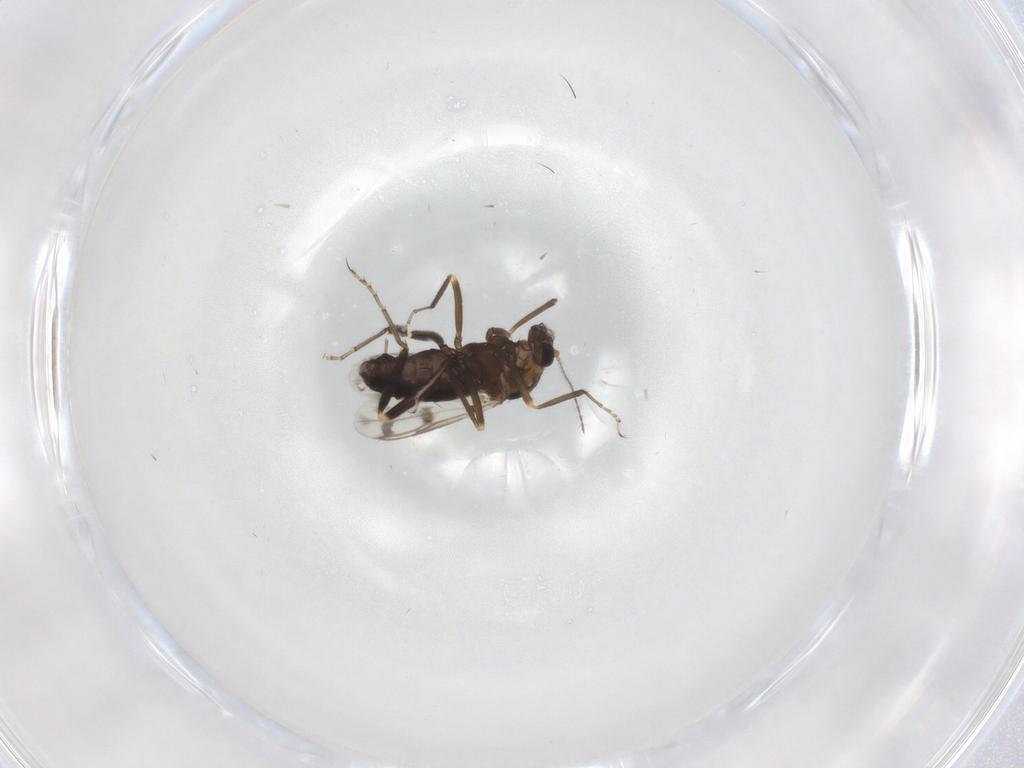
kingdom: Animalia
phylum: Arthropoda
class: Insecta
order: Diptera
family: Ceratopogonidae
